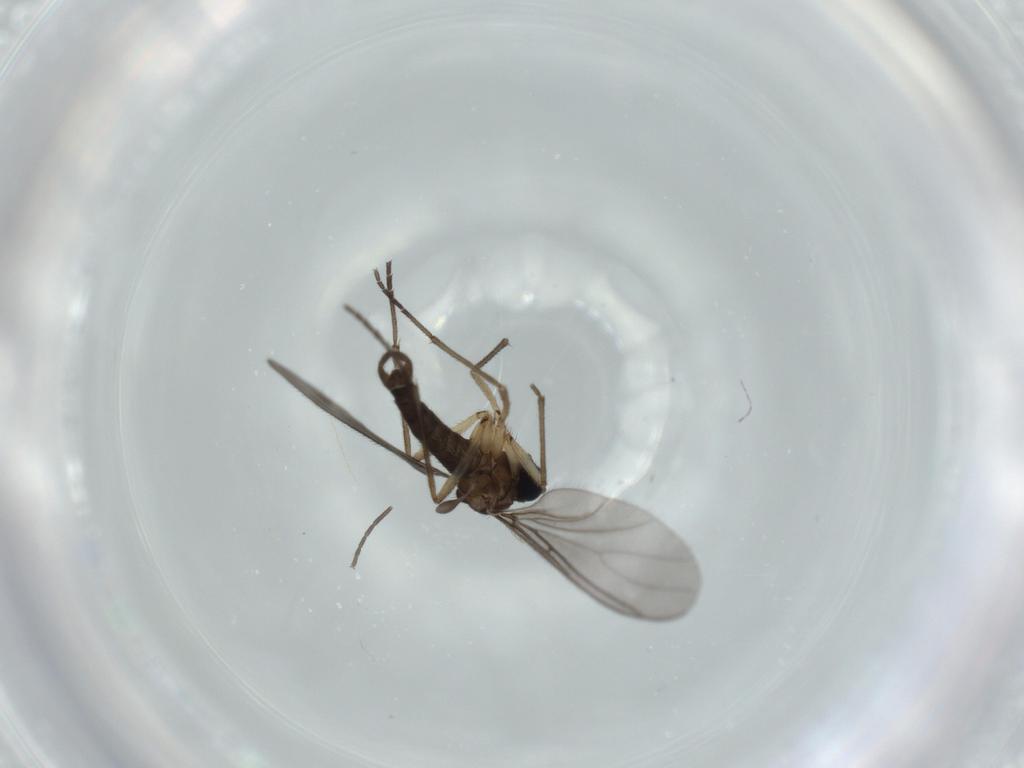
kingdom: Animalia
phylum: Arthropoda
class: Insecta
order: Diptera
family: Sciaridae
